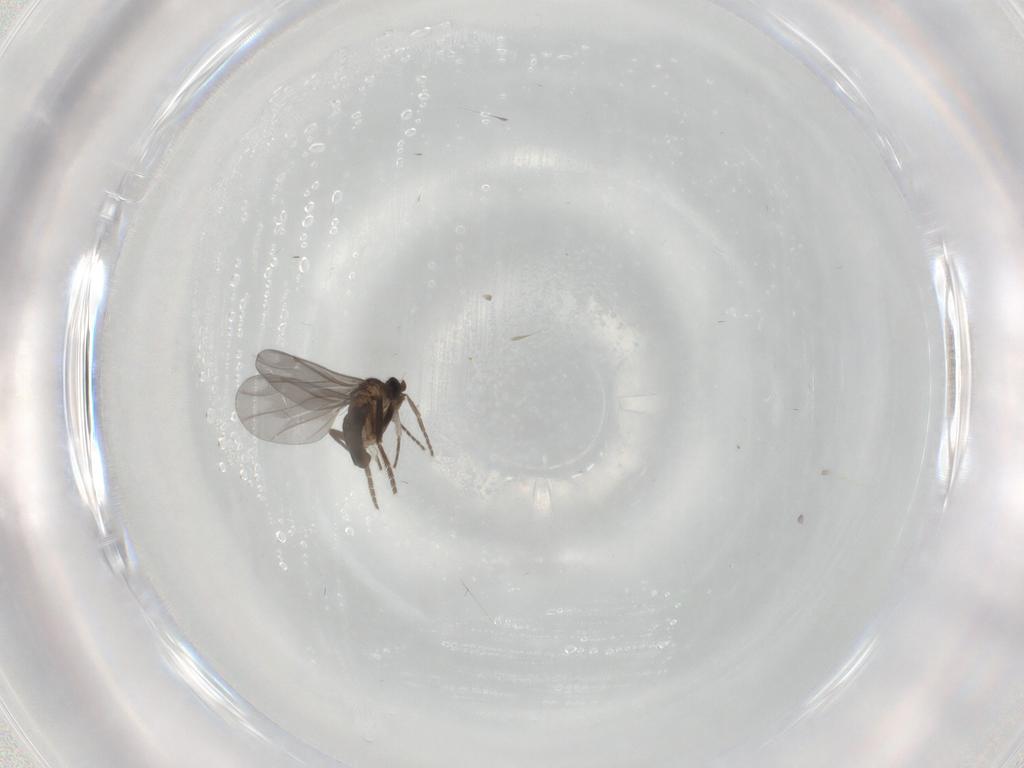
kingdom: Animalia
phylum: Arthropoda
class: Insecta
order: Diptera
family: Phoridae
